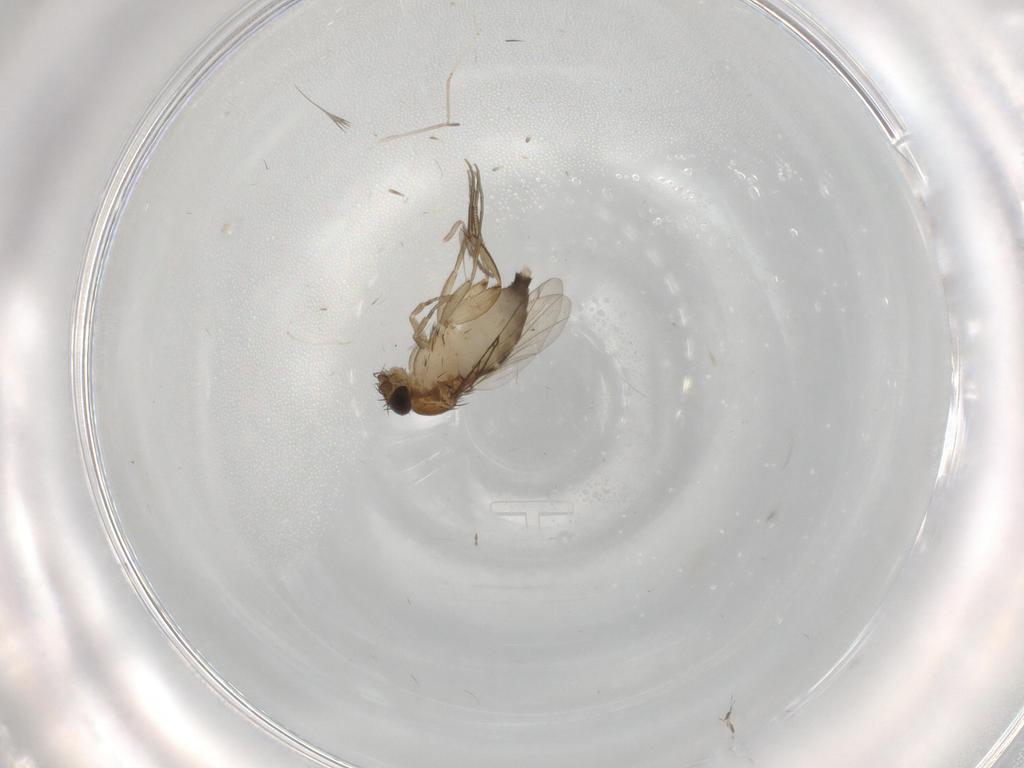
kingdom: Animalia
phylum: Arthropoda
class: Insecta
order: Diptera
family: Phoridae
